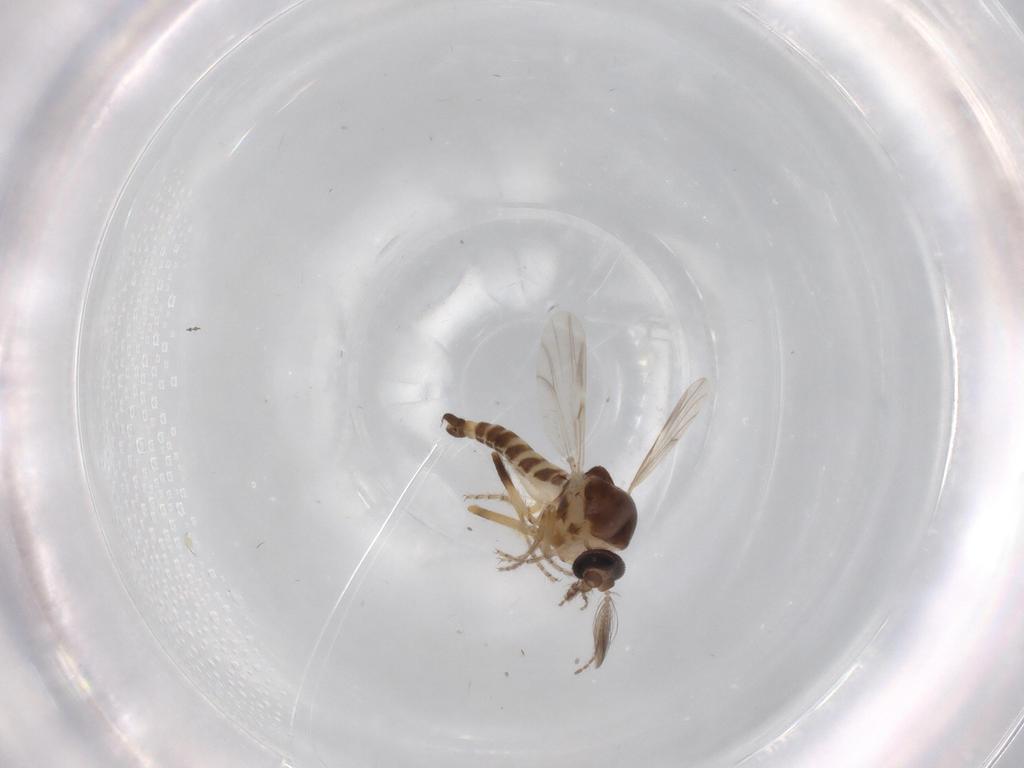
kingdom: Animalia
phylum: Arthropoda
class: Insecta
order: Diptera
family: Ceratopogonidae
